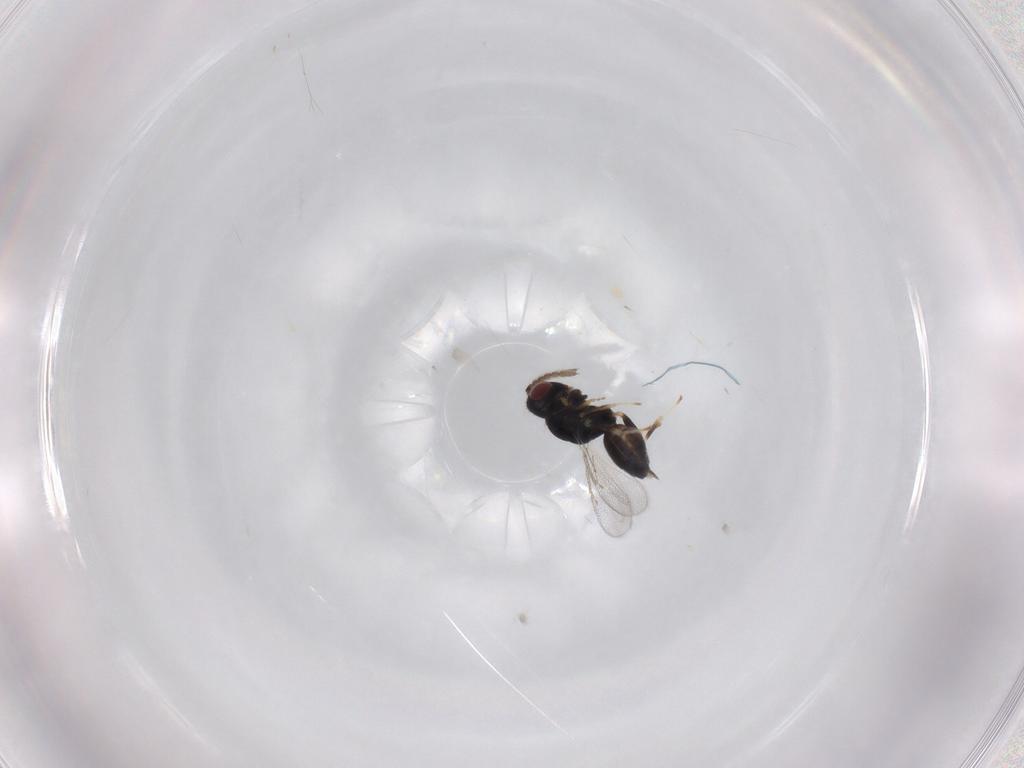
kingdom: Animalia
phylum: Arthropoda
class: Insecta
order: Hymenoptera
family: Eulophidae
